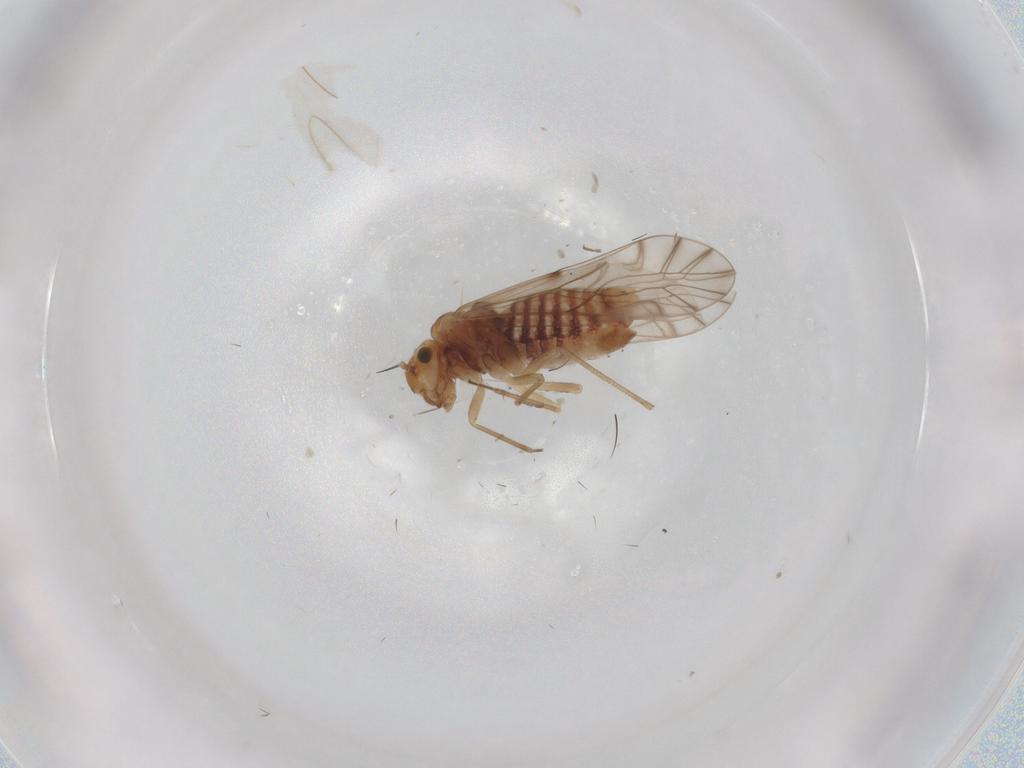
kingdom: Animalia
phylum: Arthropoda
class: Insecta
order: Psocodea
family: Lachesillidae
